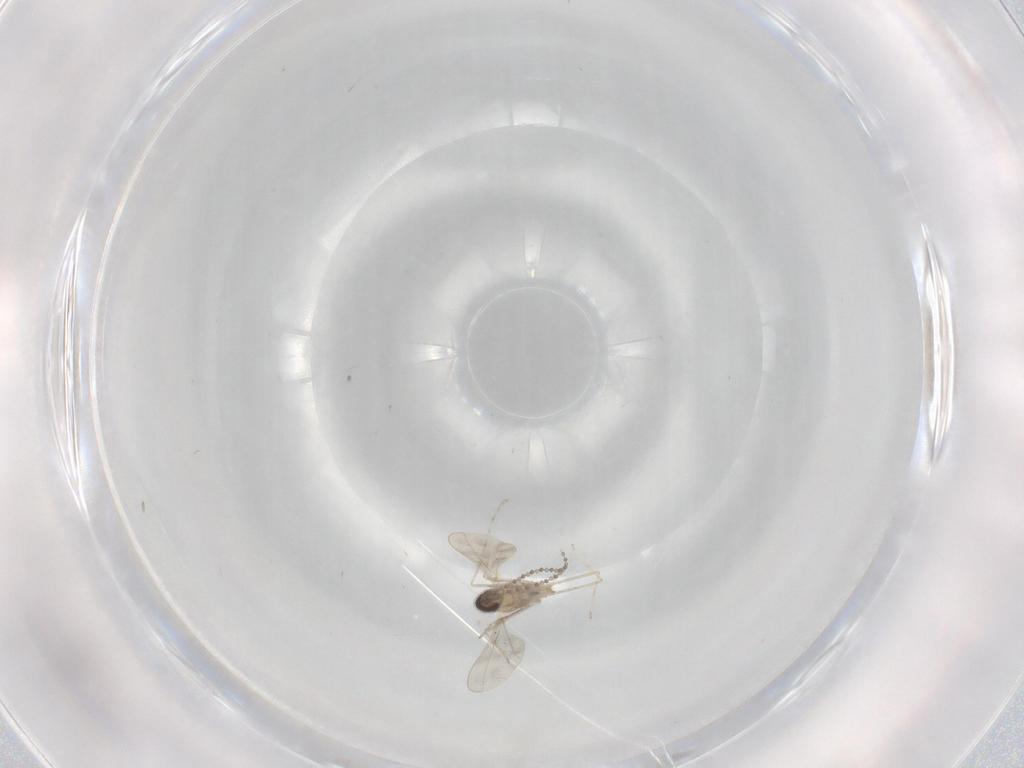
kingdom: Animalia
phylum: Arthropoda
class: Insecta
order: Diptera
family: Cecidomyiidae
